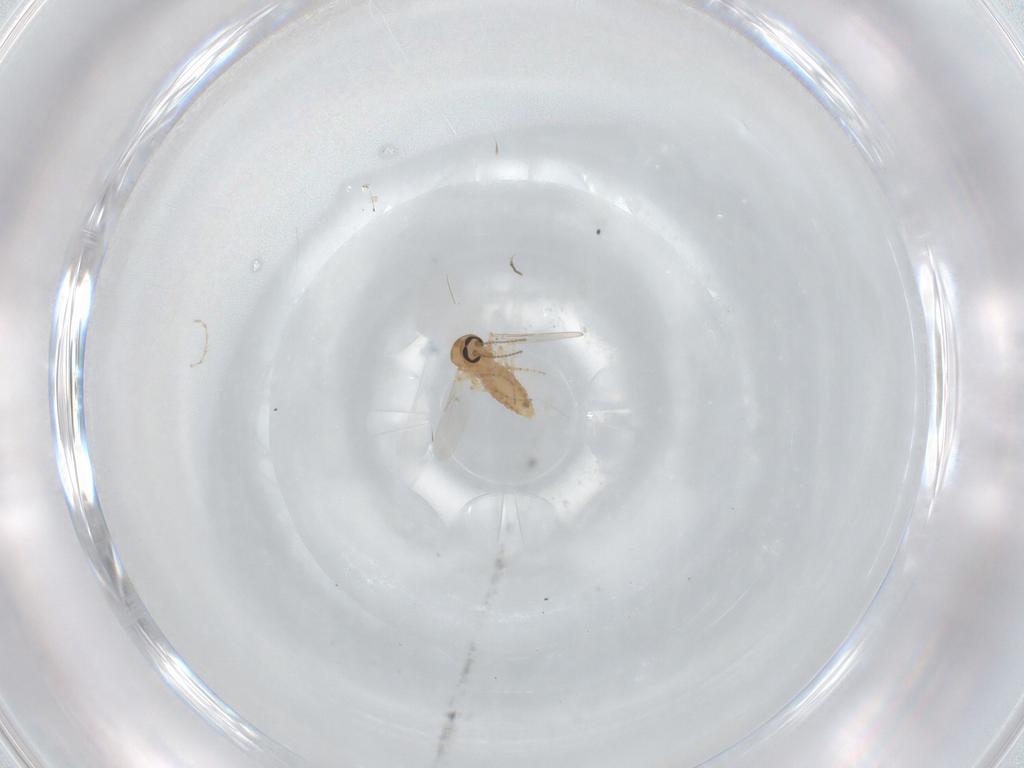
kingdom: Animalia
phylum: Arthropoda
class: Insecta
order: Diptera
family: Ceratopogonidae
